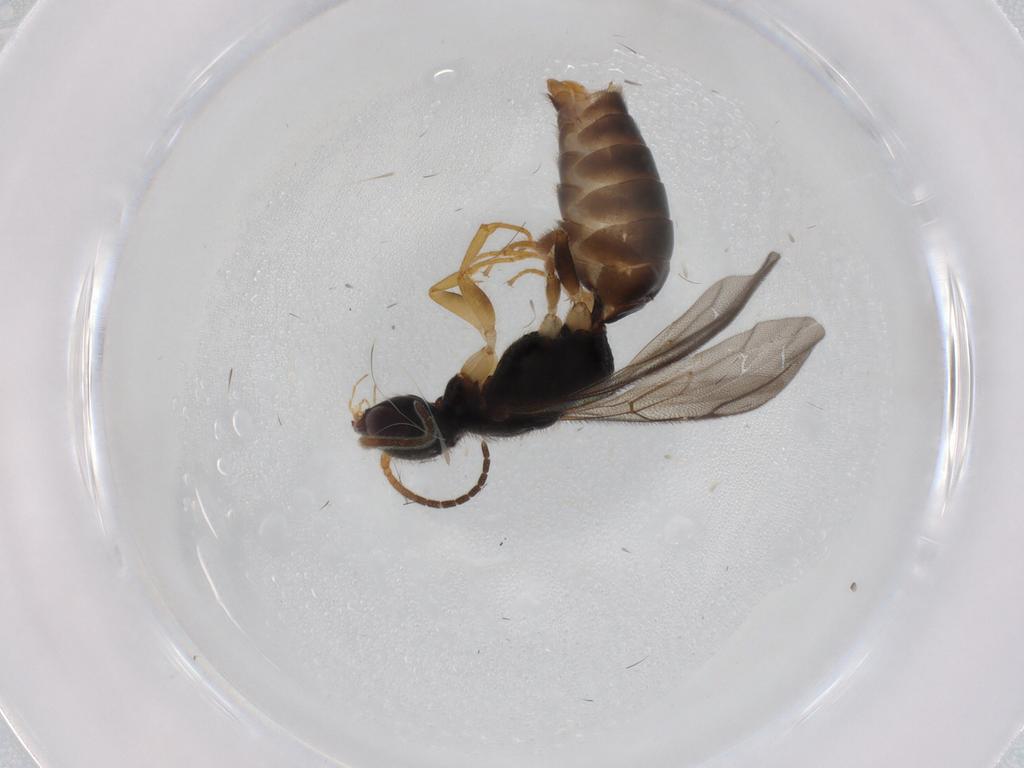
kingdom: Animalia
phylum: Arthropoda
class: Insecta
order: Hymenoptera
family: Bethylidae
